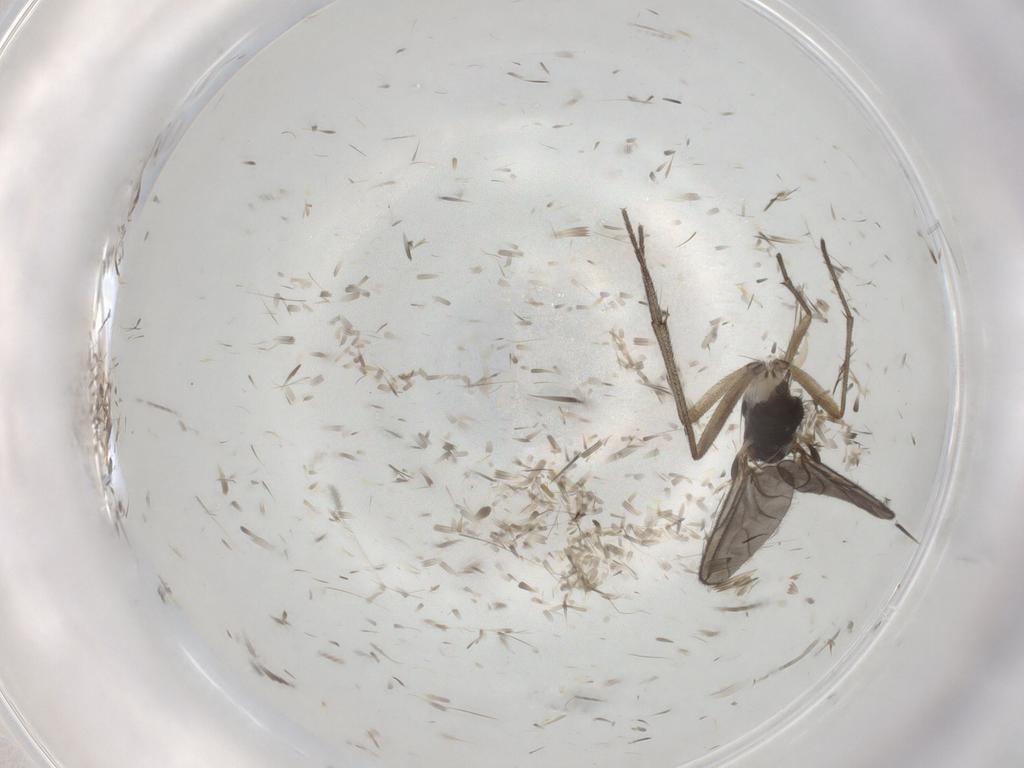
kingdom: Animalia
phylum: Arthropoda
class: Insecta
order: Diptera
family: Sciaridae
